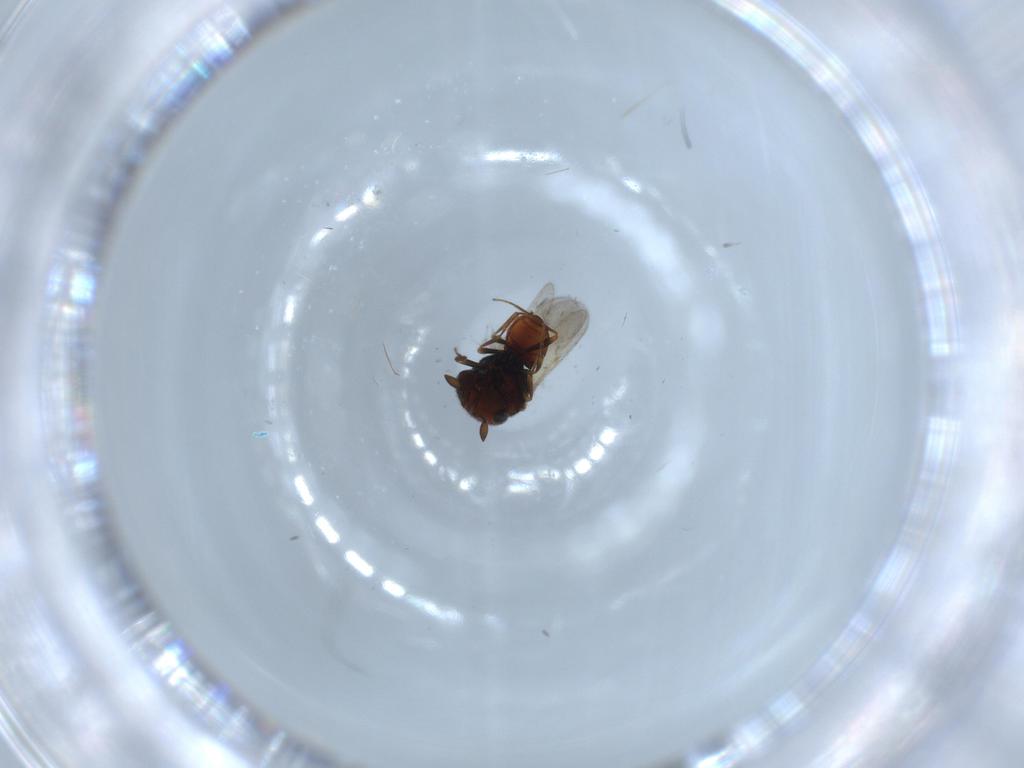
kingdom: Animalia
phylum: Arthropoda
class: Insecta
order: Hymenoptera
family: Scelionidae
